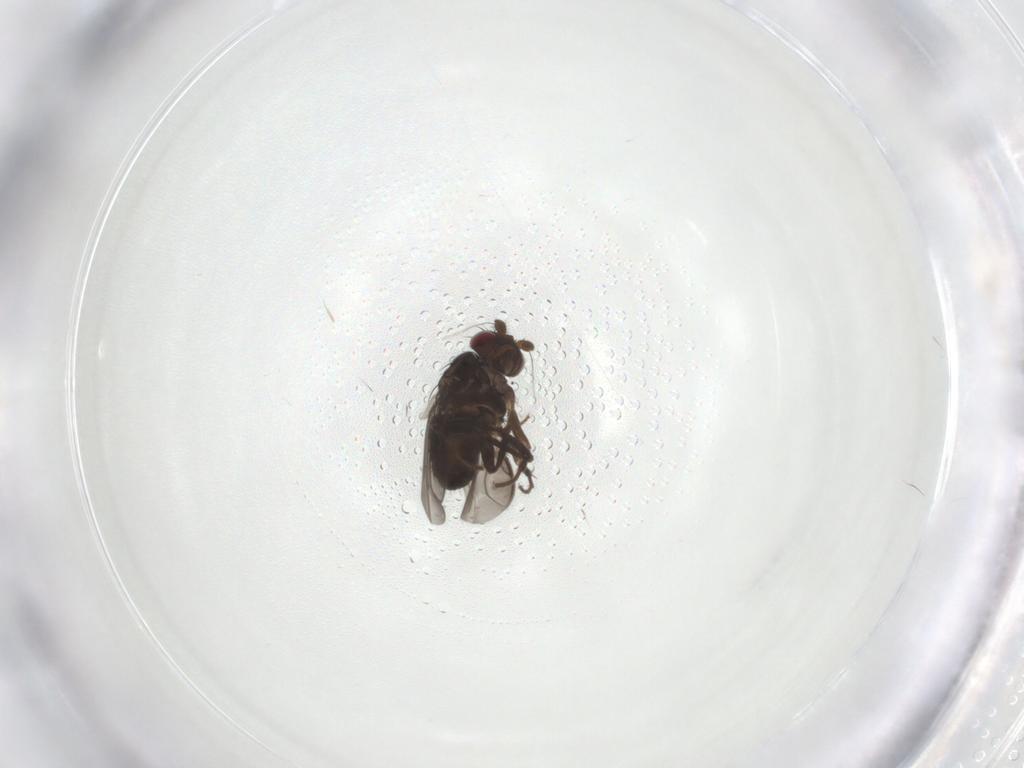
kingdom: Animalia
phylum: Arthropoda
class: Insecta
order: Diptera
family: Sphaeroceridae
